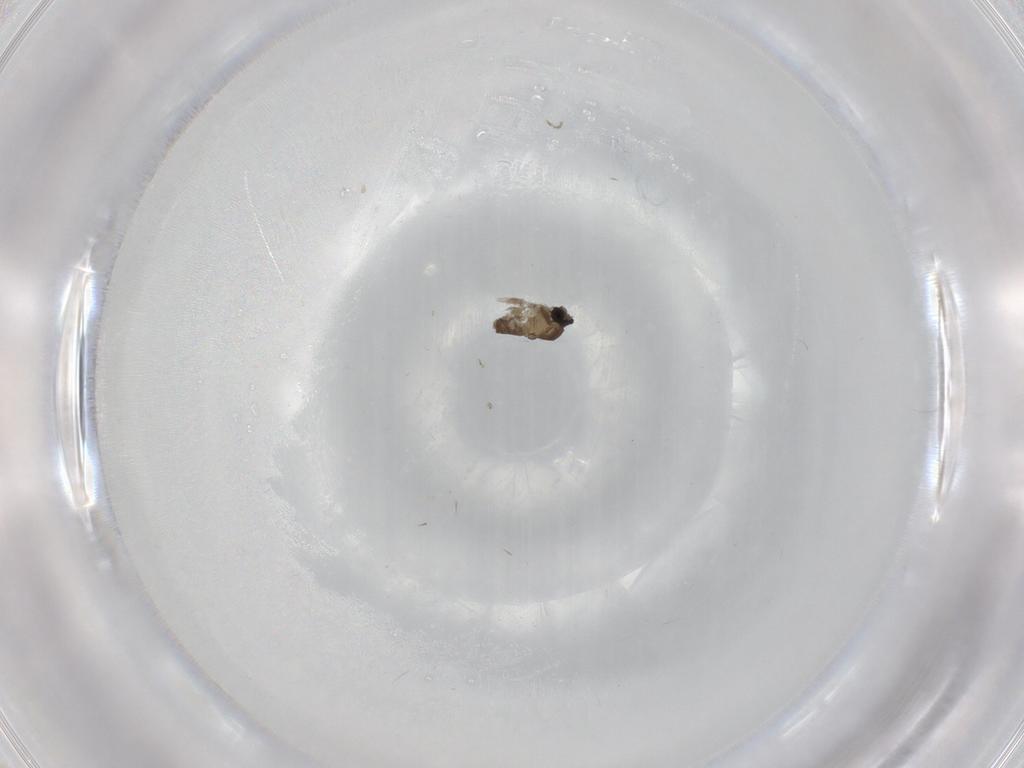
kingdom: Animalia
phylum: Arthropoda
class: Insecta
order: Diptera
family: Cecidomyiidae
